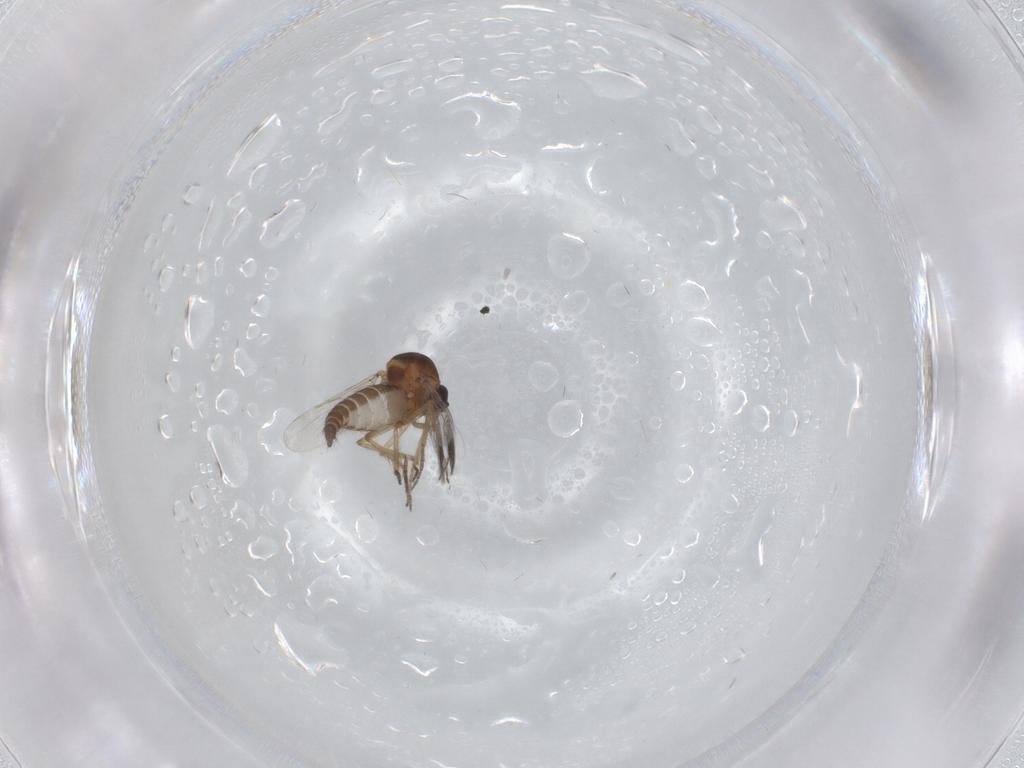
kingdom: Animalia
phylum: Arthropoda
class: Insecta
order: Diptera
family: Ceratopogonidae
